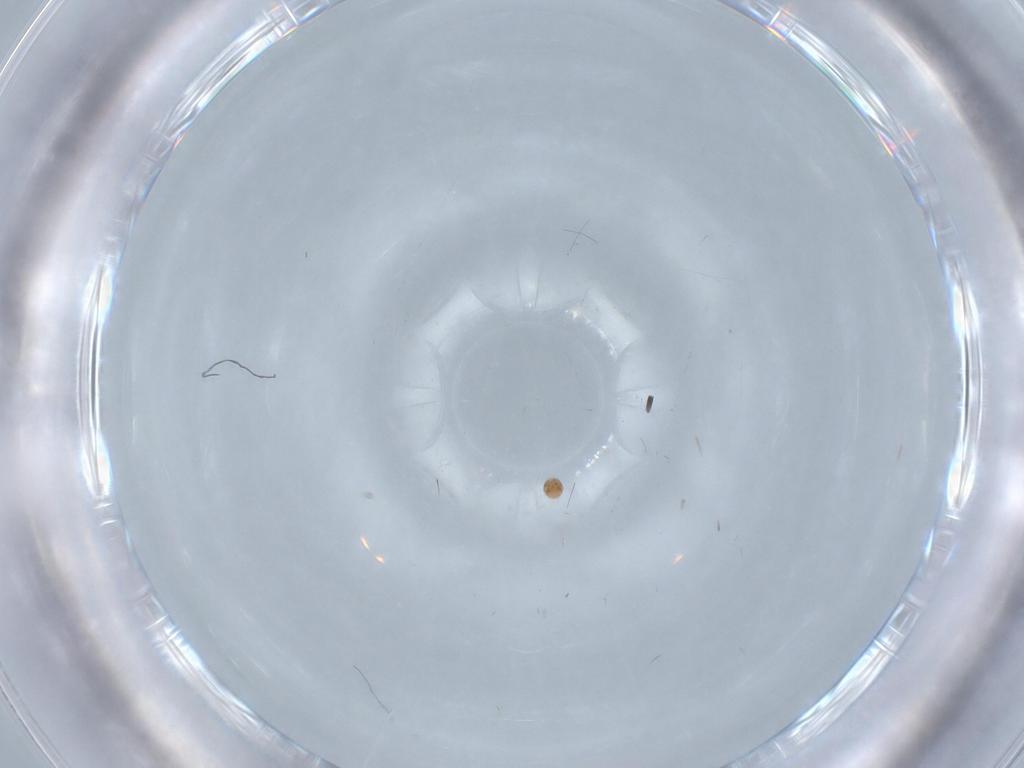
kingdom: Animalia
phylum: Arthropoda
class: Arachnida
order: Trombidiformes
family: Scutacaridae
